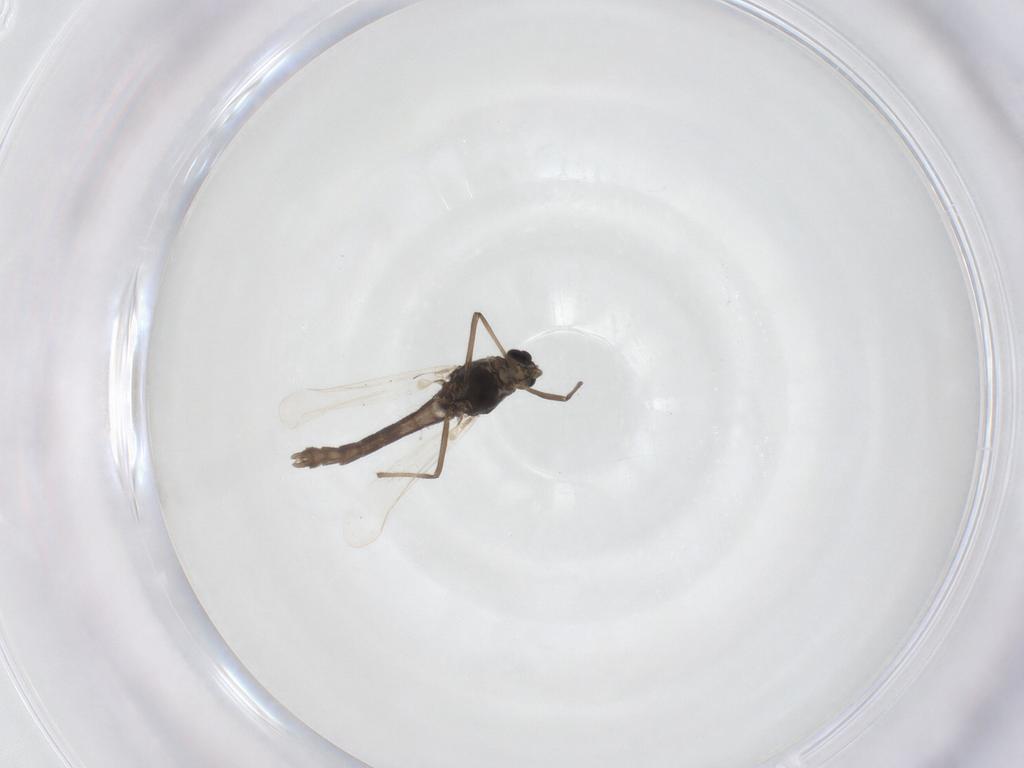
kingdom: Animalia
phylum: Arthropoda
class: Insecta
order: Diptera
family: Chironomidae
